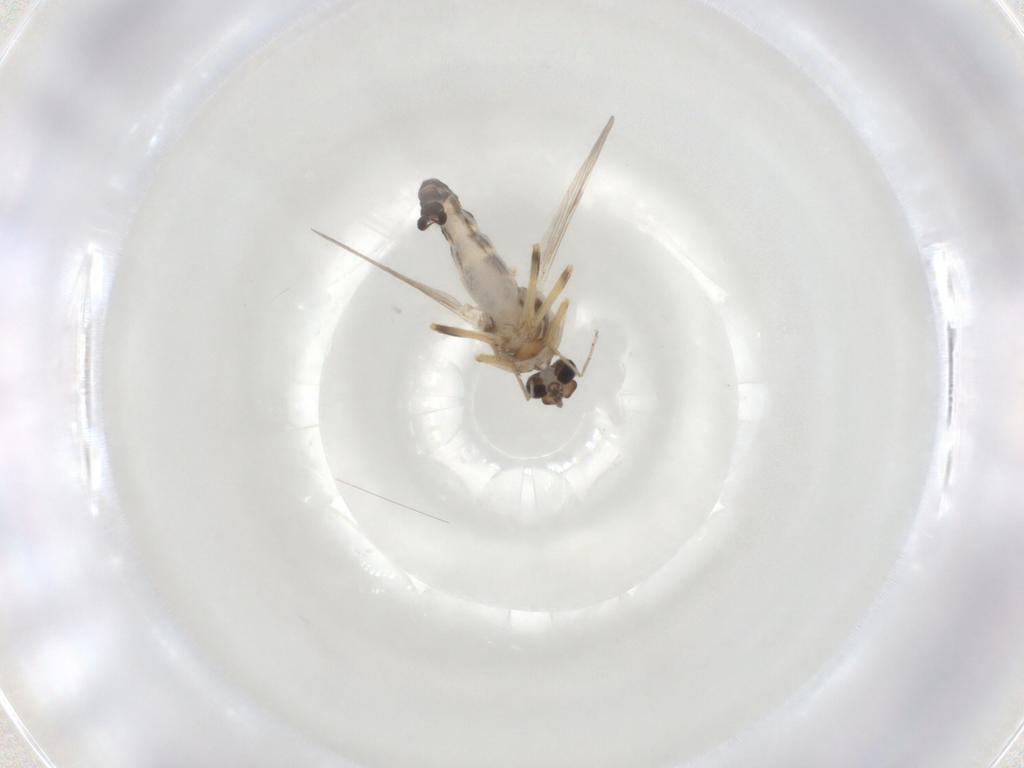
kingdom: Animalia
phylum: Arthropoda
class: Insecta
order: Diptera
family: Ceratopogonidae
